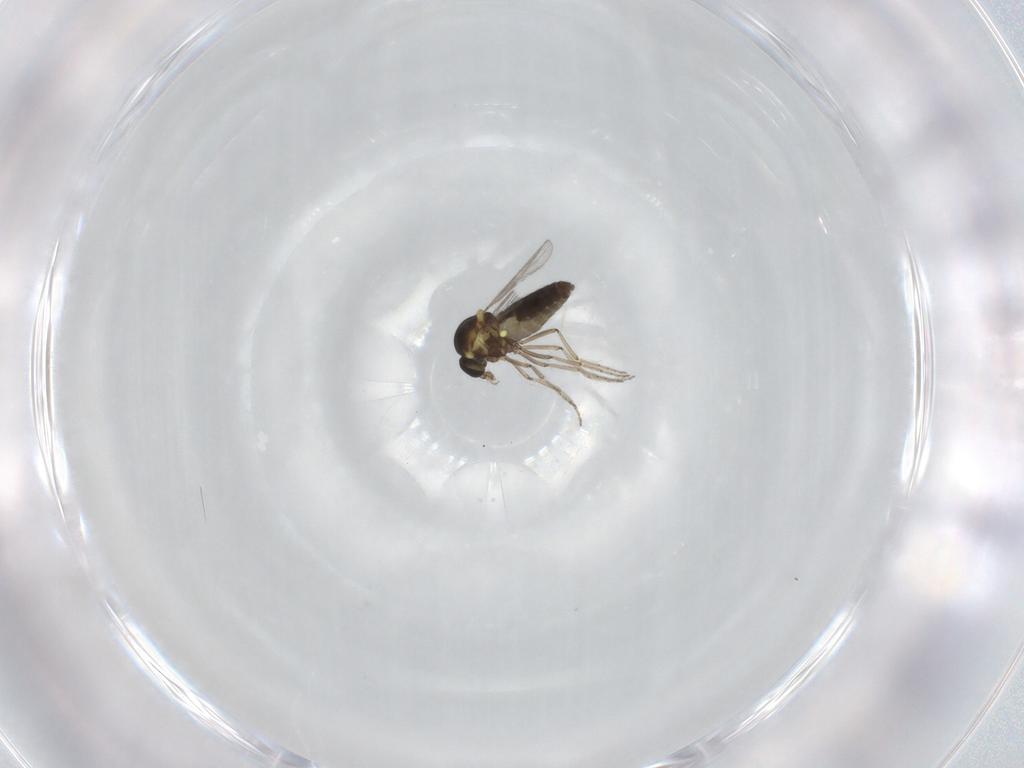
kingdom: Animalia
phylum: Arthropoda
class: Insecta
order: Diptera
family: Ceratopogonidae
